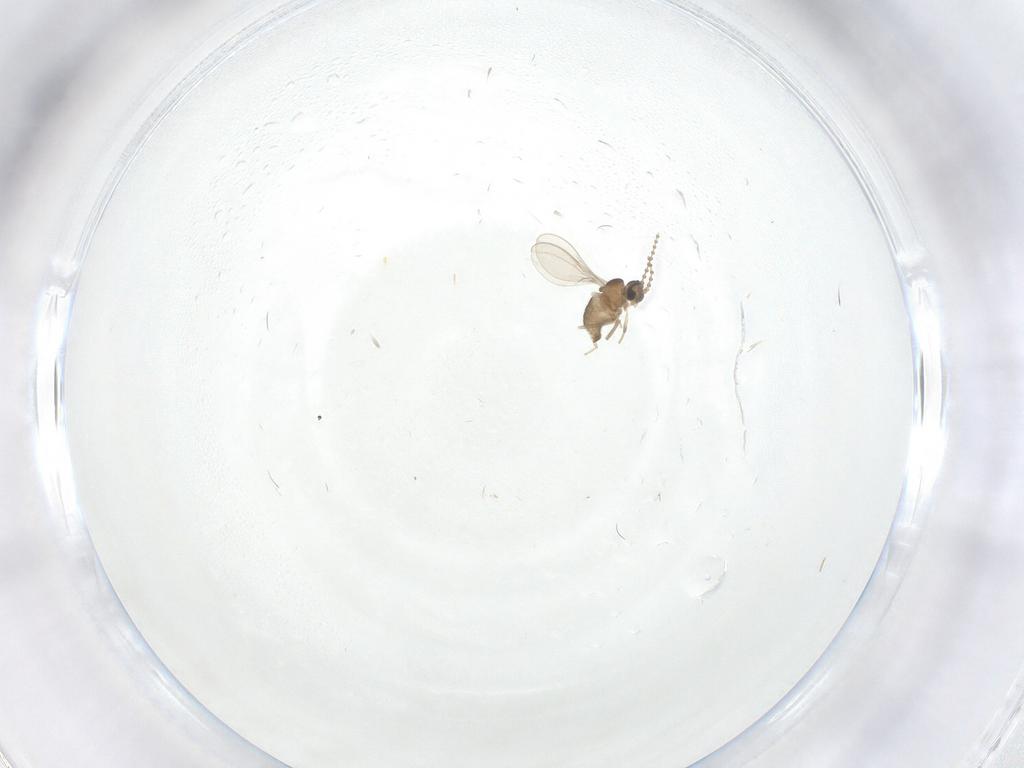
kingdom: Animalia
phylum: Arthropoda
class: Insecta
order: Diptera
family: Cecidomyiidae
